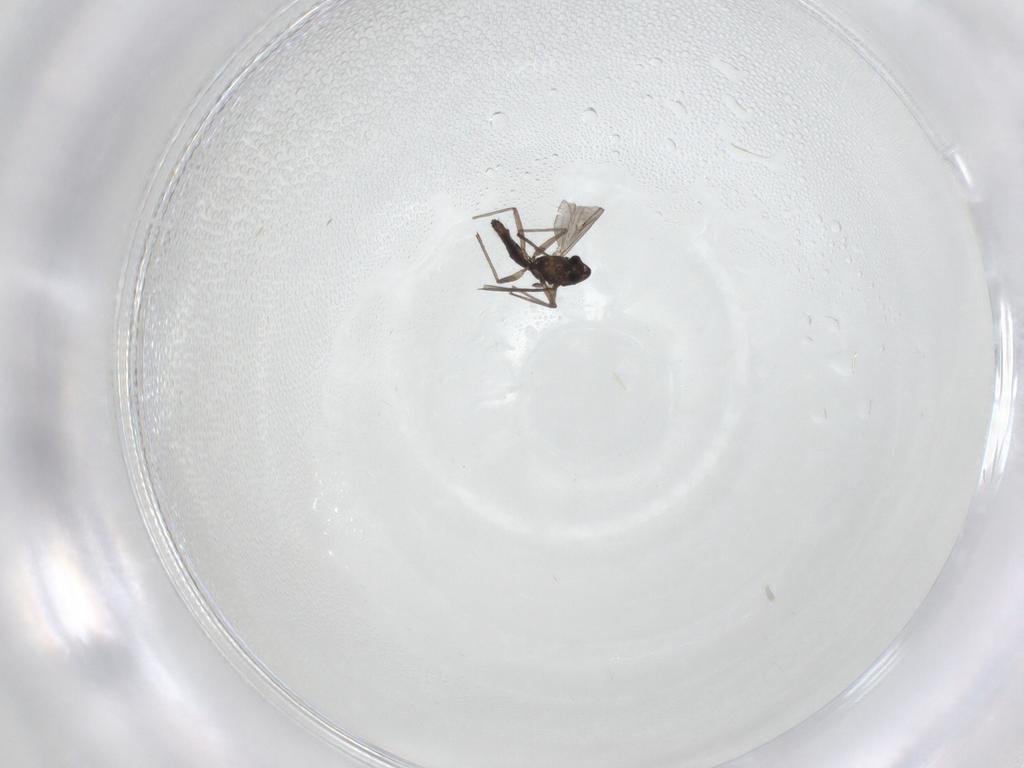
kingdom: Animalia
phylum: Arthropoda
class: Insecta
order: Diptera
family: Chironomidae
